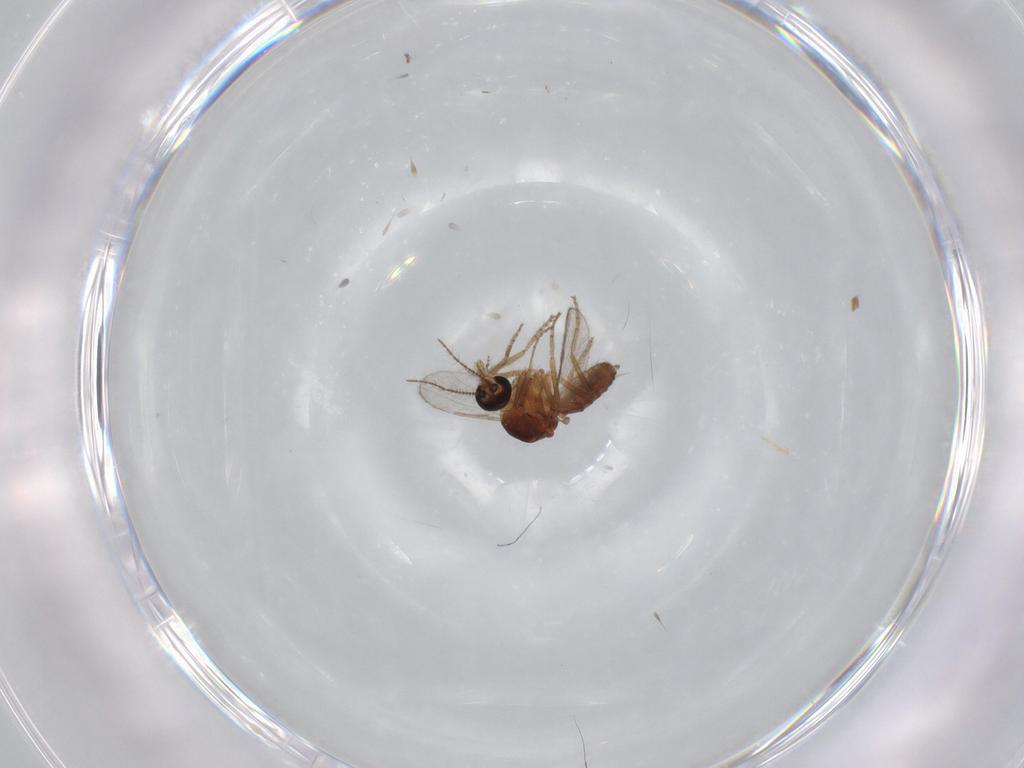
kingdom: Animalia
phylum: Arthropoda
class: Insecta
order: Diptera
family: Ceratopogonidae
